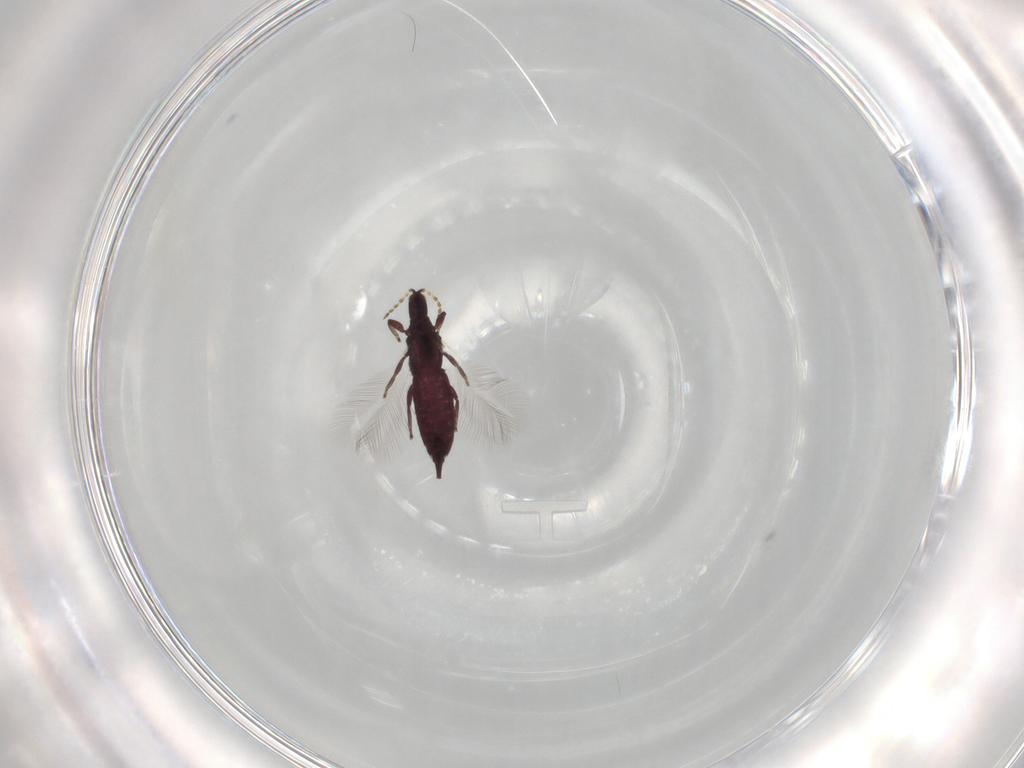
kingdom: Animalia
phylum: Arthropoda
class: Insecta
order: Thysanoptera
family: Phlaeothripidae
